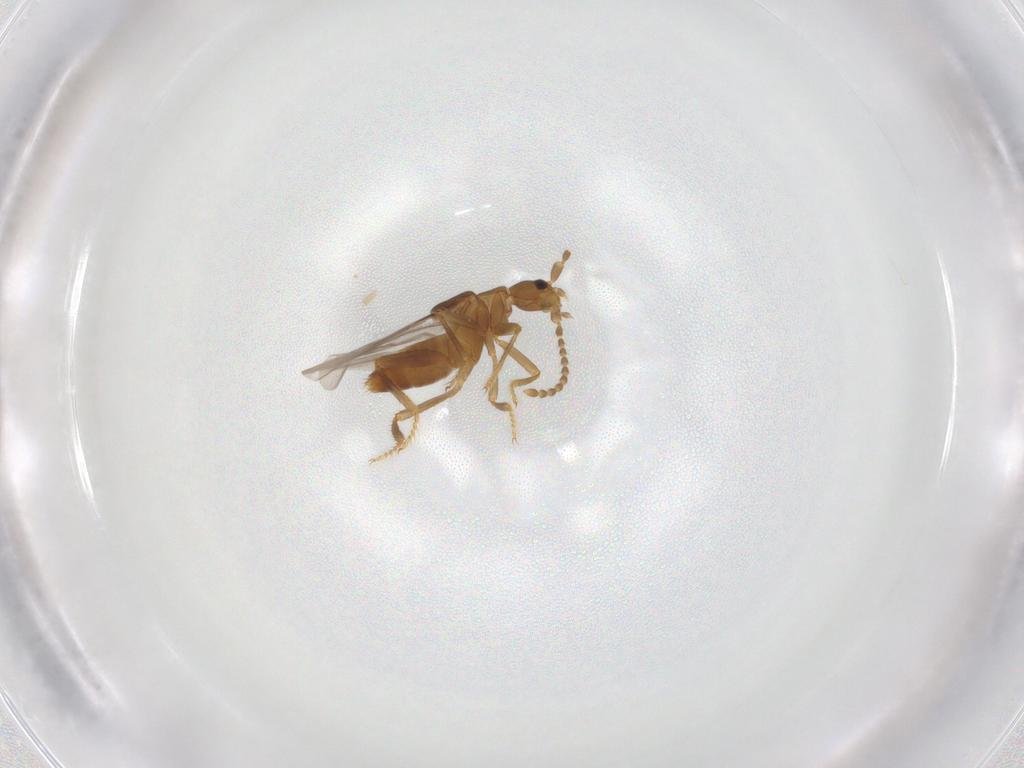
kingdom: Animalia
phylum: Arthropoda
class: Insecta
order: Coleoptera
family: Staphylinidae
